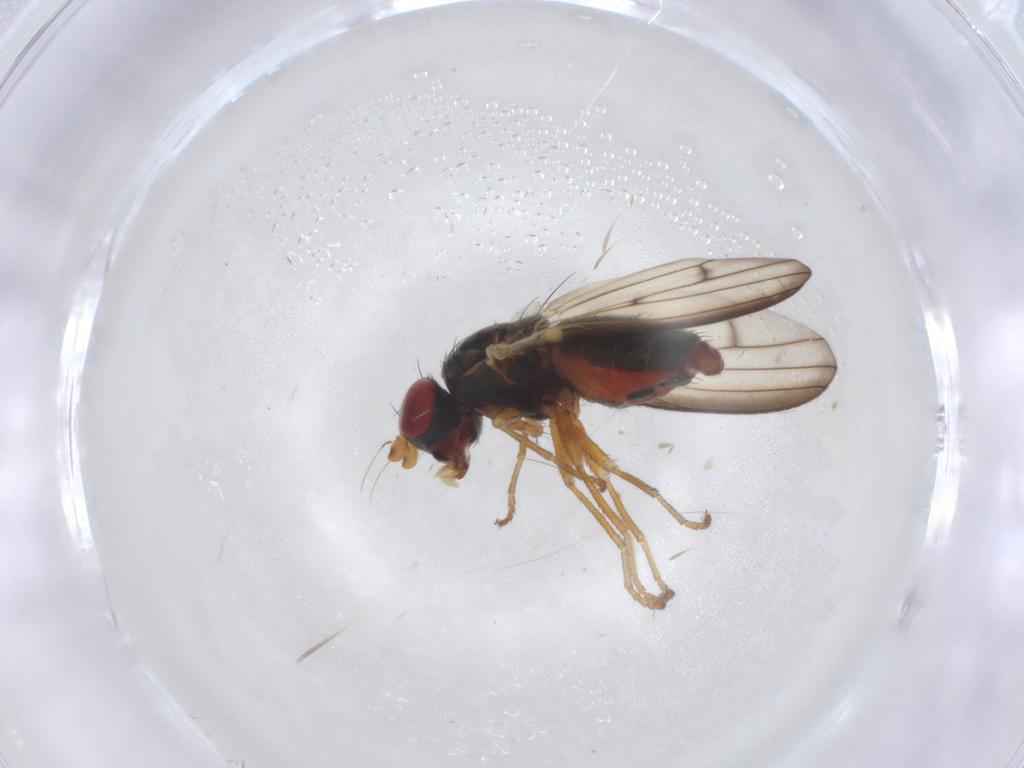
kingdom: Animalia
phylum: Arthropoda
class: Insecta
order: Diptera
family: Chamaemyiidae
